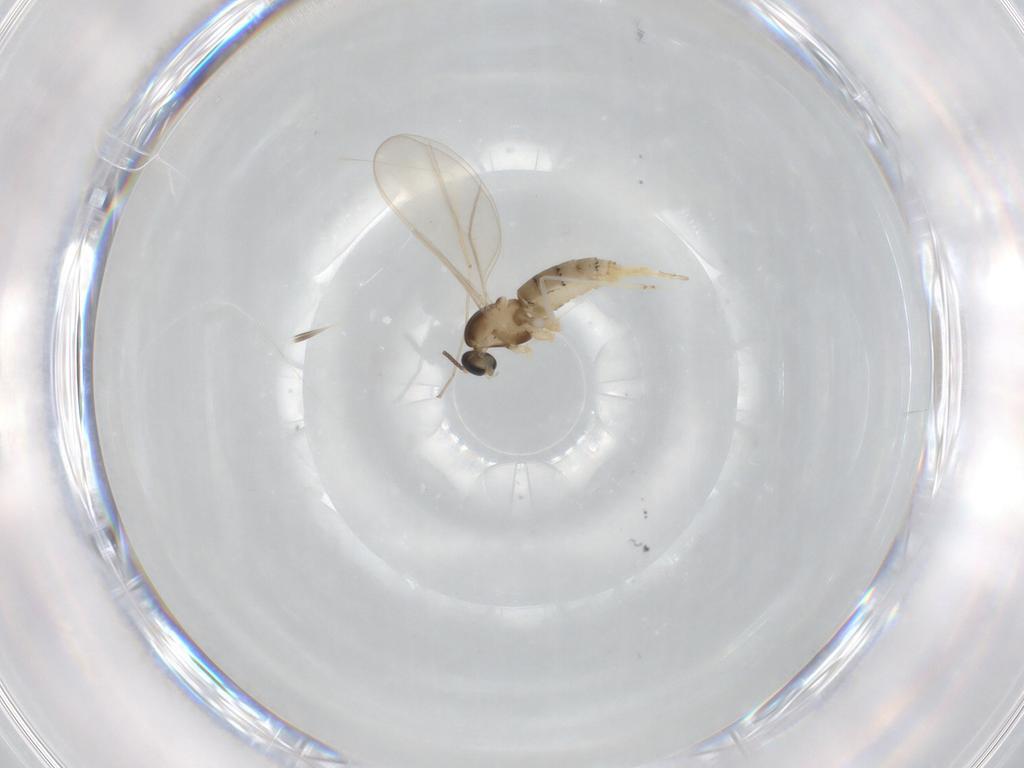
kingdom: Animalia
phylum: Arthropoda
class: Insecta
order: Diptera
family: Cecidomyiidae
